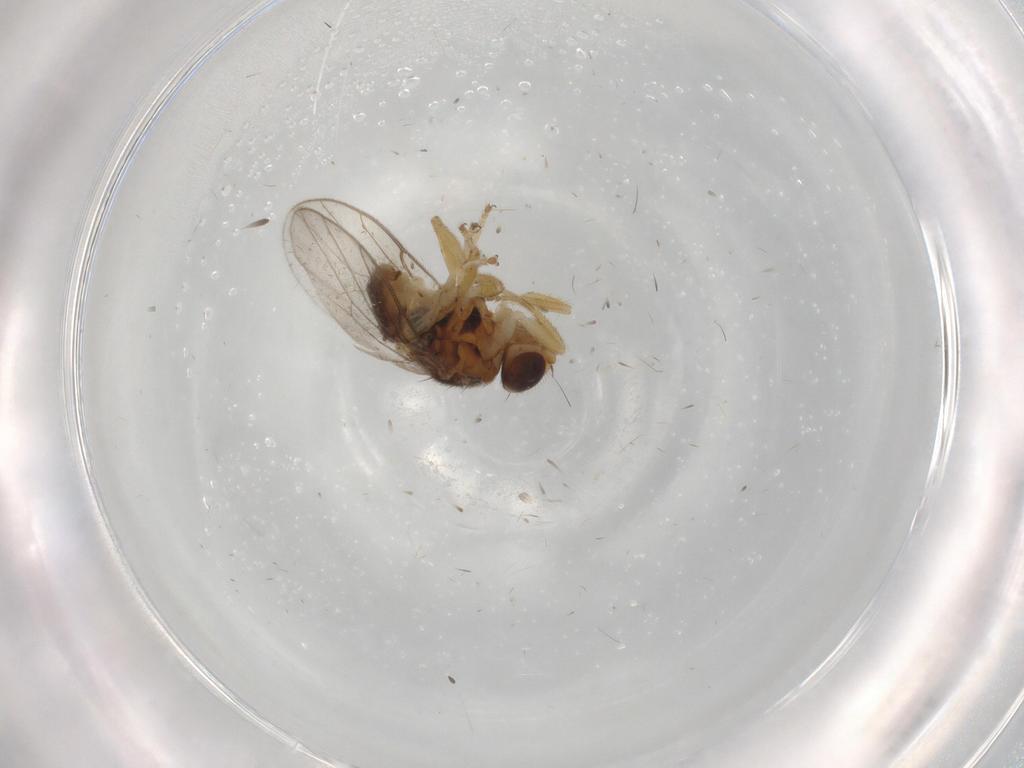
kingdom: Animalia
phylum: Arthropoda
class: Insecta
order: Diptera
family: Chloropidae
